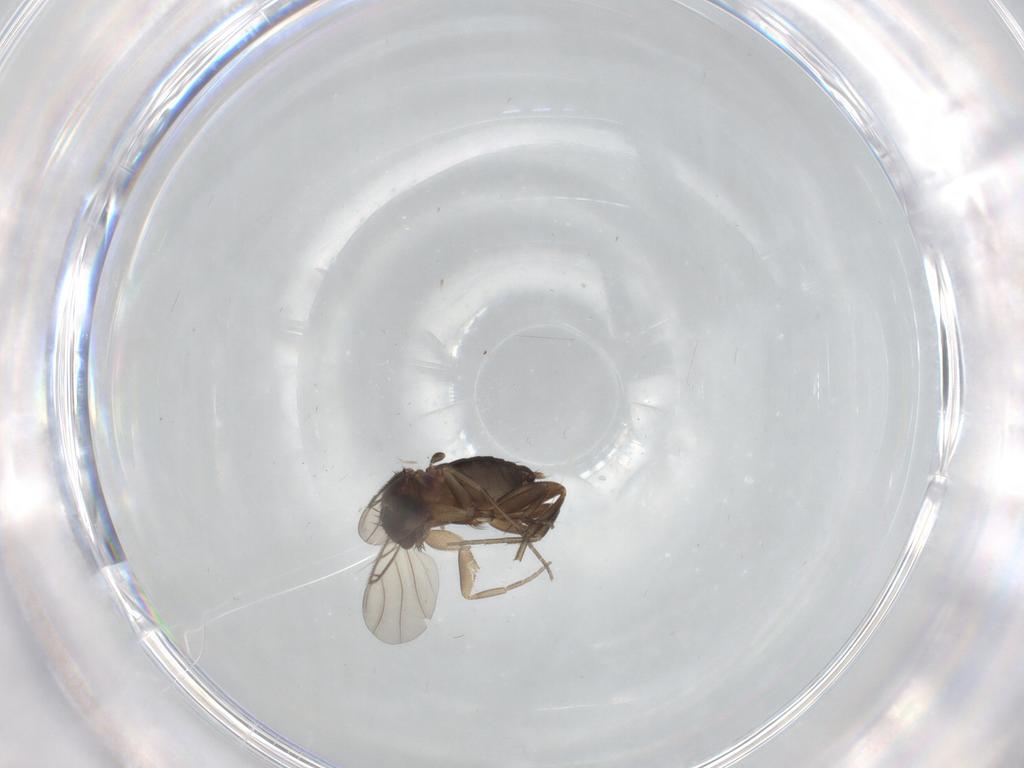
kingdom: Animalia
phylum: Arthropoda
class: Insecta
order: Diptera
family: Phoridae
